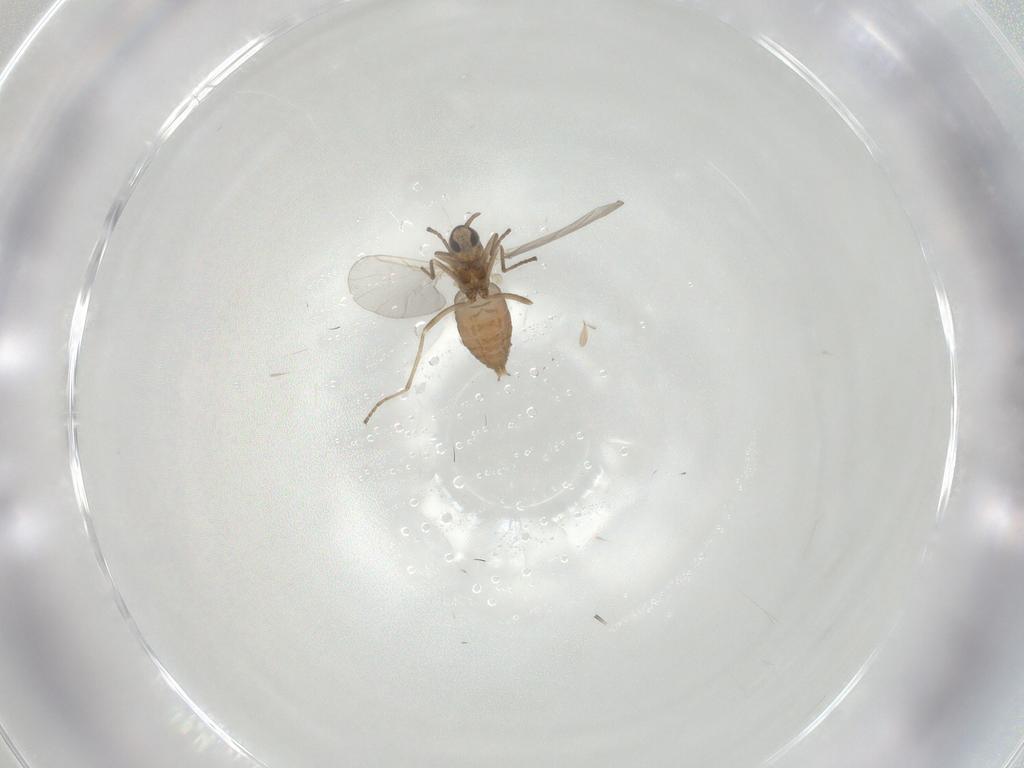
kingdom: Animalia
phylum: Arthropoda
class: Insecta
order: Diptera
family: Cecidomyiidae
